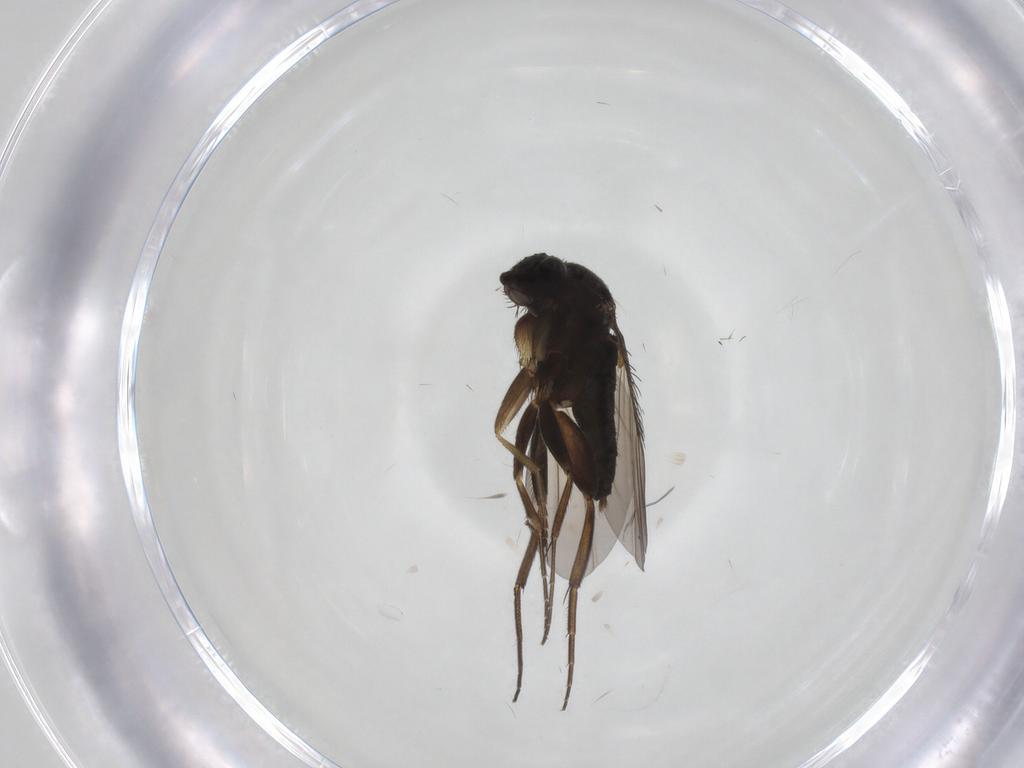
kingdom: Animalia
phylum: Arthropoda
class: Insecta
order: Diptera
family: Phoridae
